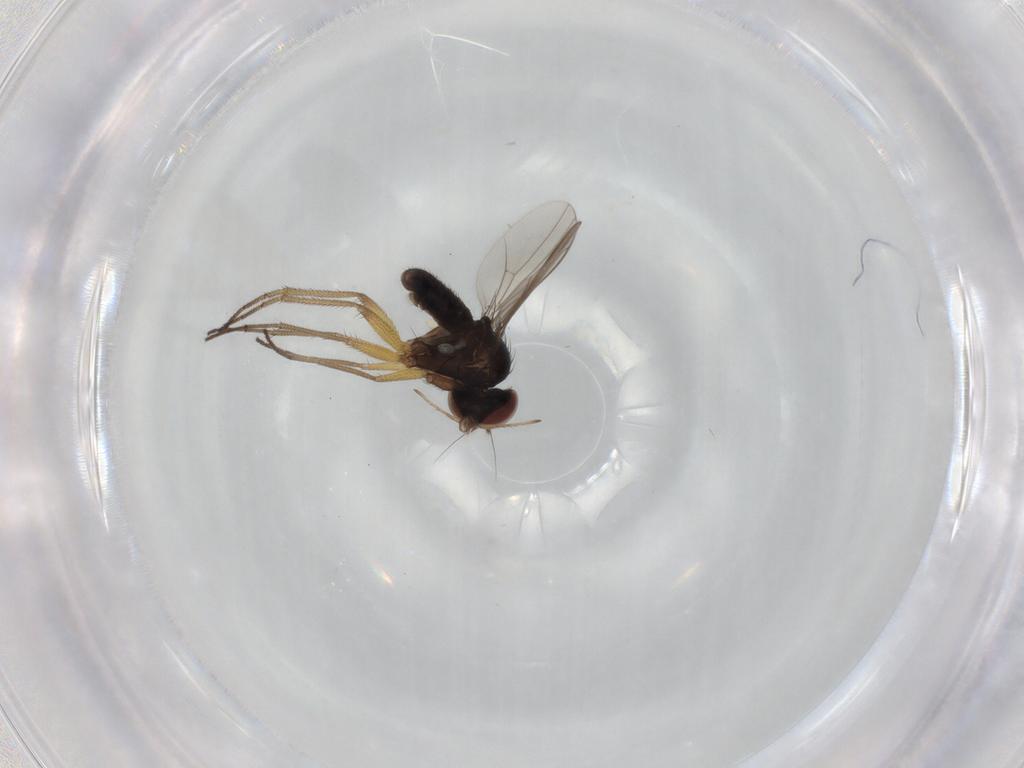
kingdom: Animalia
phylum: Arthropoda
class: Insecta
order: Diptera
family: Dolichopodidae
